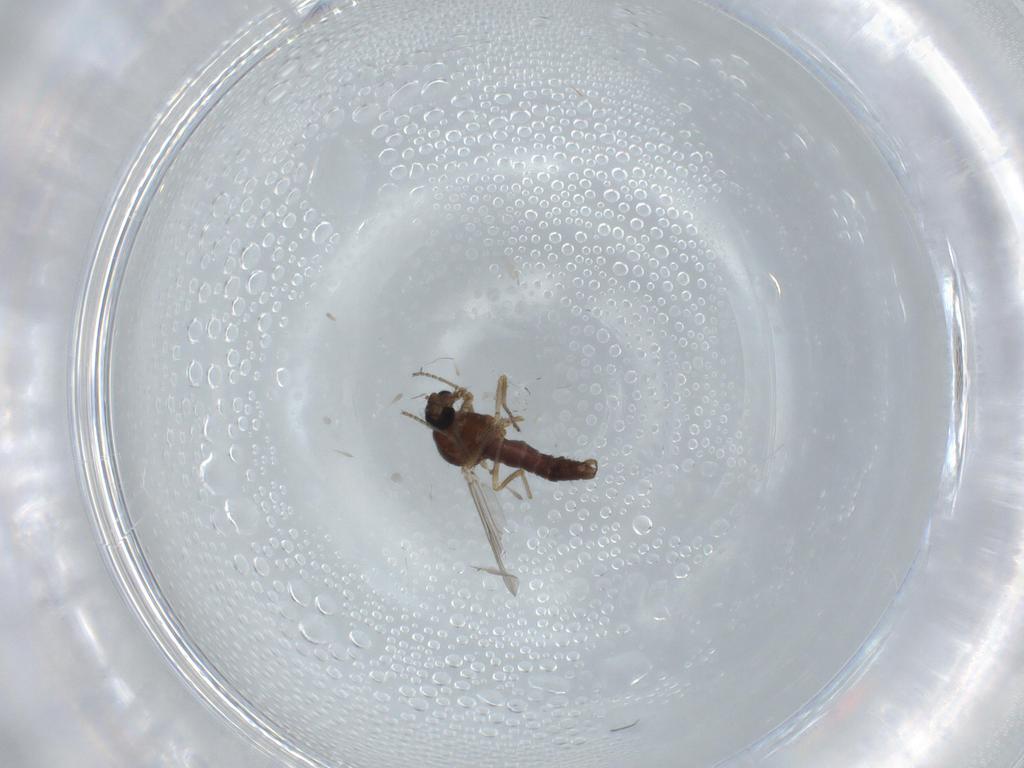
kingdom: Animalia
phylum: Arthropoda
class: Insecta
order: Diptera
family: Ceratopogonidae
